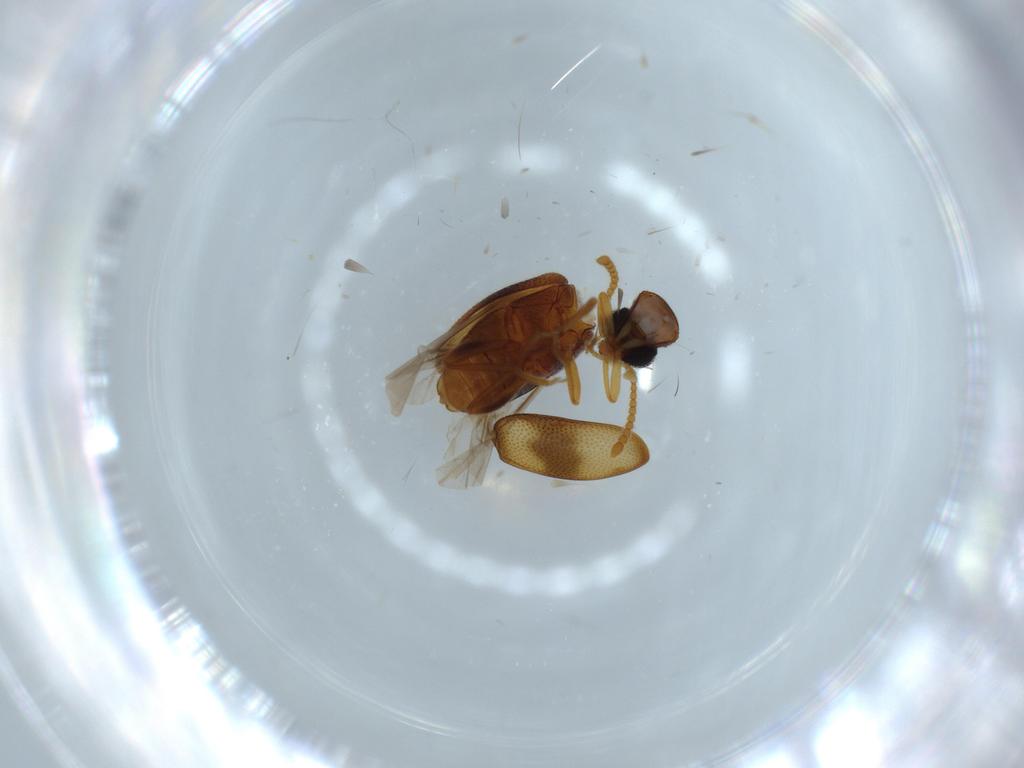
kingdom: Animalia
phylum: Arthropoda
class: Insecta
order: Coleoptera
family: Aderidae
